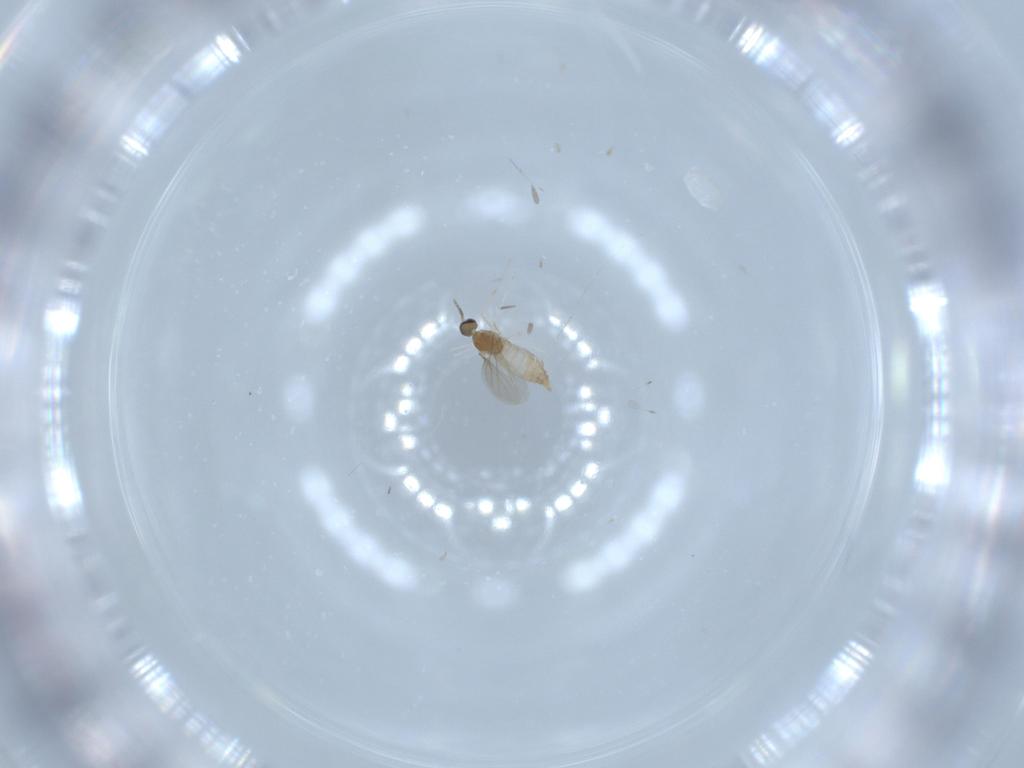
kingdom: Animalia
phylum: Arthropoda
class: Insecta
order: Diptera
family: Cecidomyiidae
